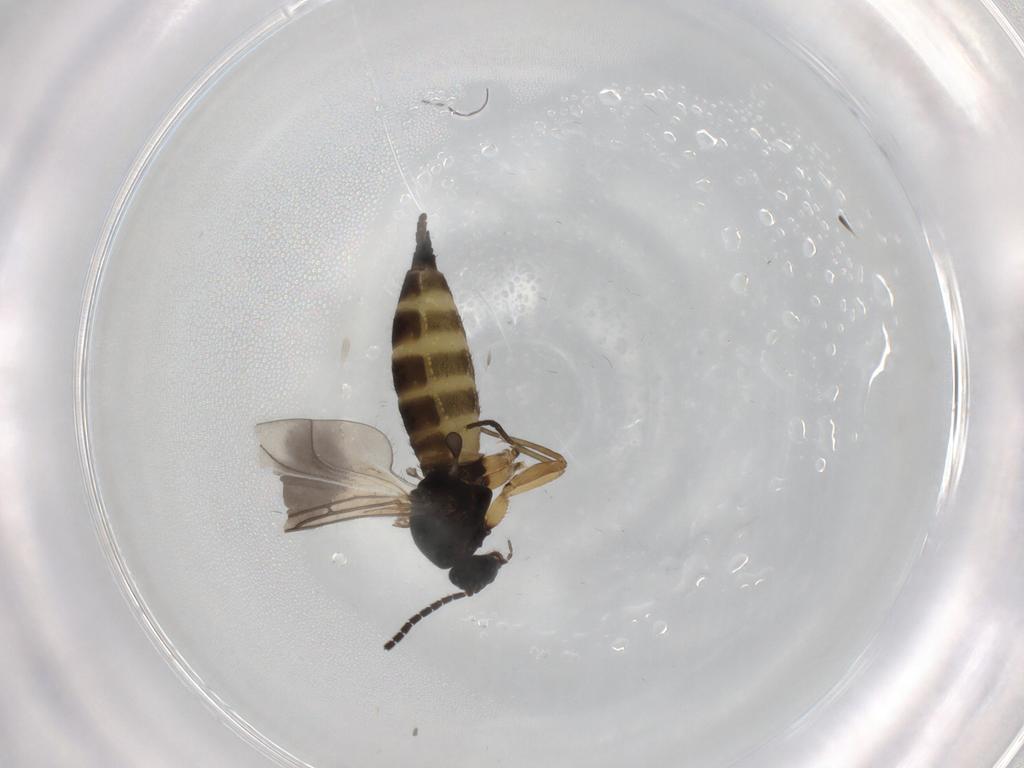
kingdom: Animalia
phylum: Arthropoda
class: Insecta
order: Diptera
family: Sciaridae
